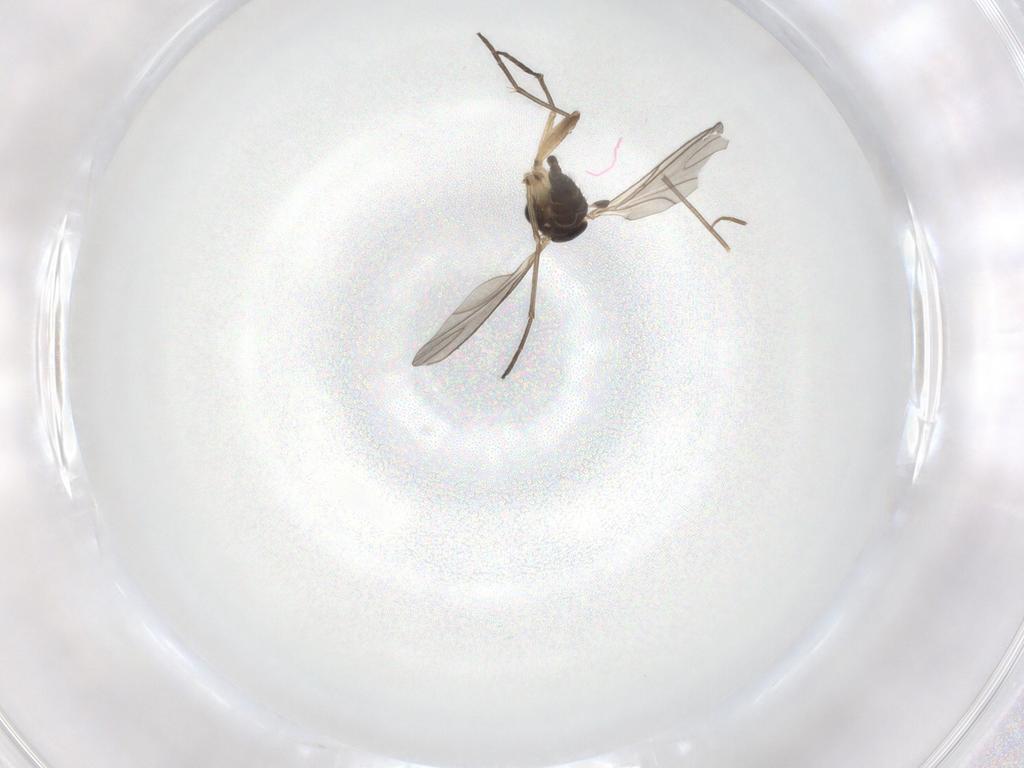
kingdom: Animalia
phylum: Arthropoda
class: Insecta
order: Diptera
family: Sciaridae
